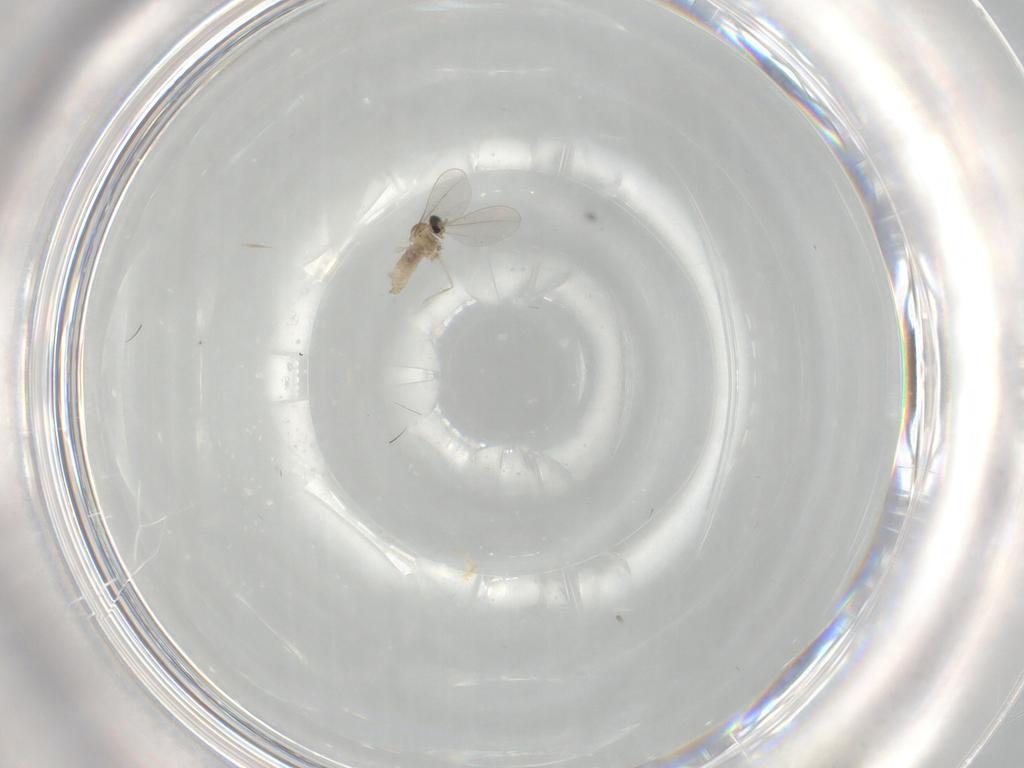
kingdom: Animalia
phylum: Arthropoda
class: Insecta
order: Diptera
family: Cecidomyiidae
